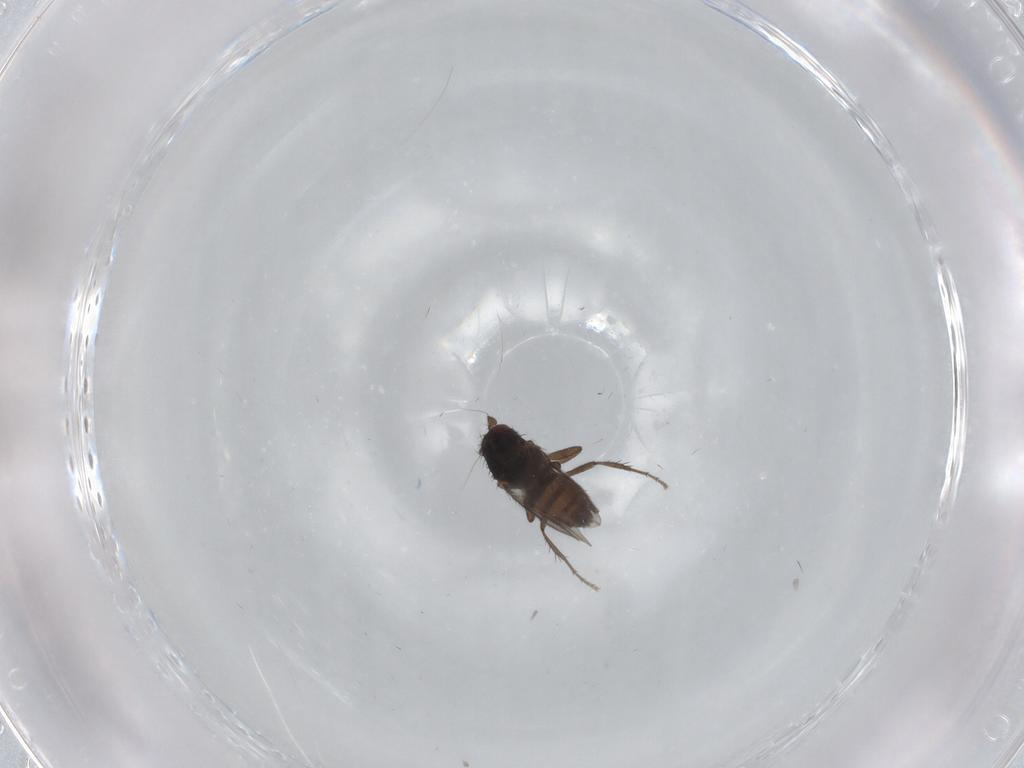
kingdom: Animalia
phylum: Arthropoda
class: Insecta
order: Diptera
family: Sphaeroceridae
